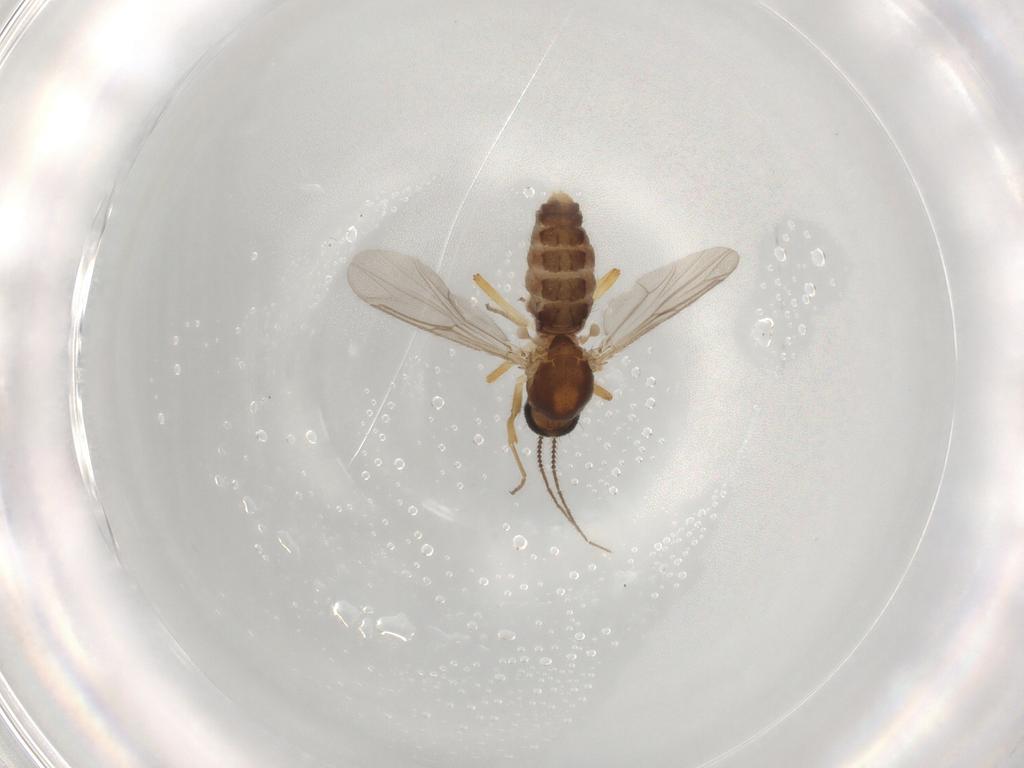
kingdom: Animalia
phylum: Arthropoda
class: Insecta
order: Diptera
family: Ceratopogonidae
